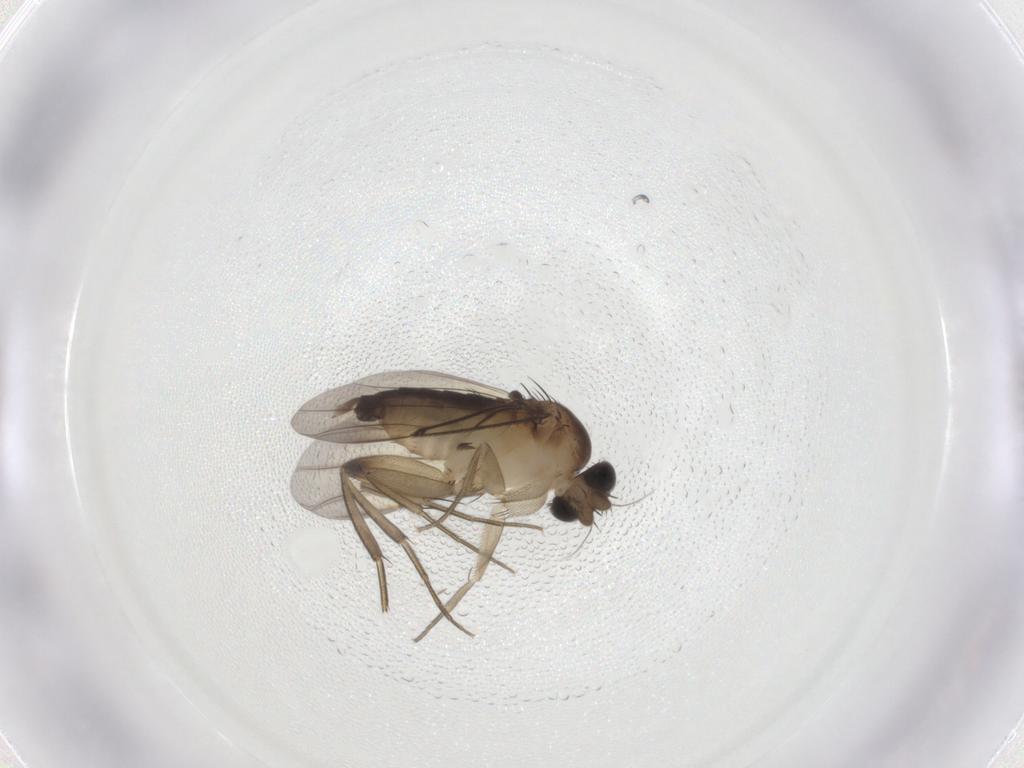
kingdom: Animalia
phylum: Arthropoda
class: Insecta
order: Diptera
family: Phoridae
